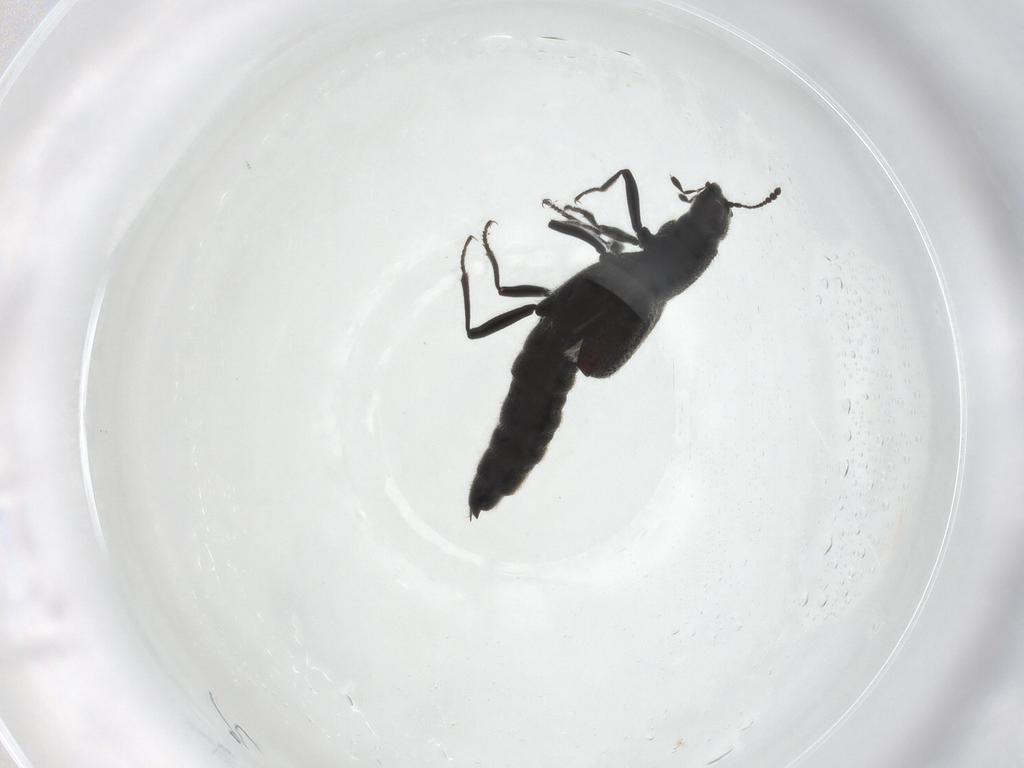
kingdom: Animalia
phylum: Arthropoda
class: Insecta
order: Coleoptera
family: Staphylinidae
